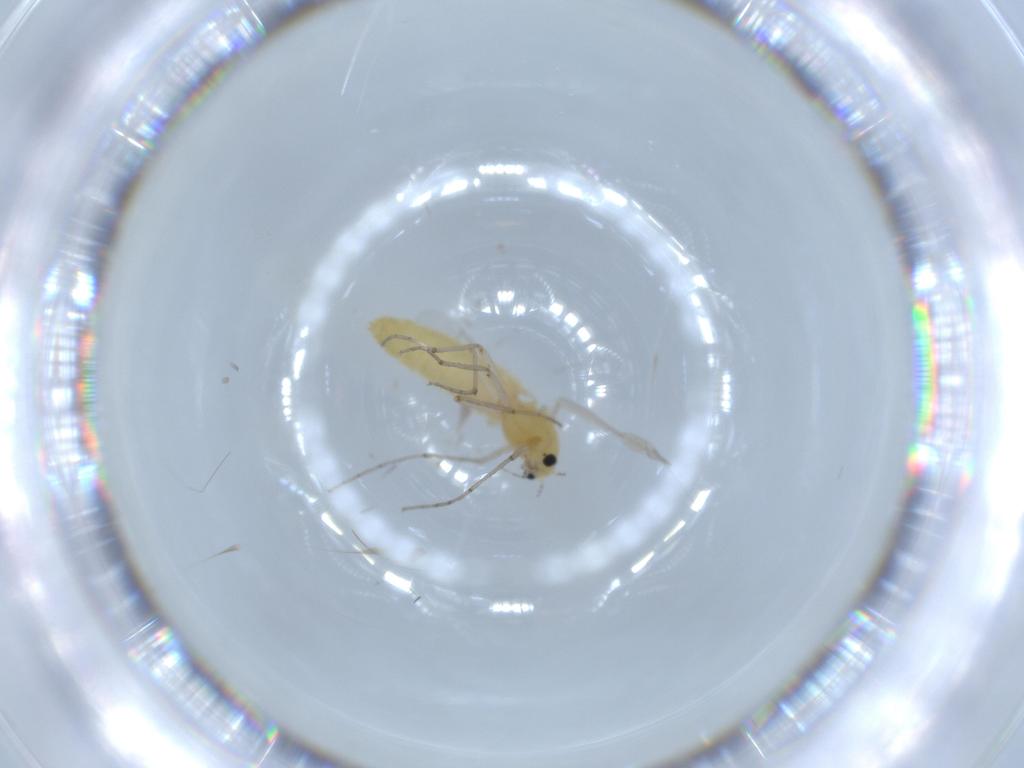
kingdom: Animalia
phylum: Arthropoda
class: Insecta
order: Diptera
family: Chironomidae
